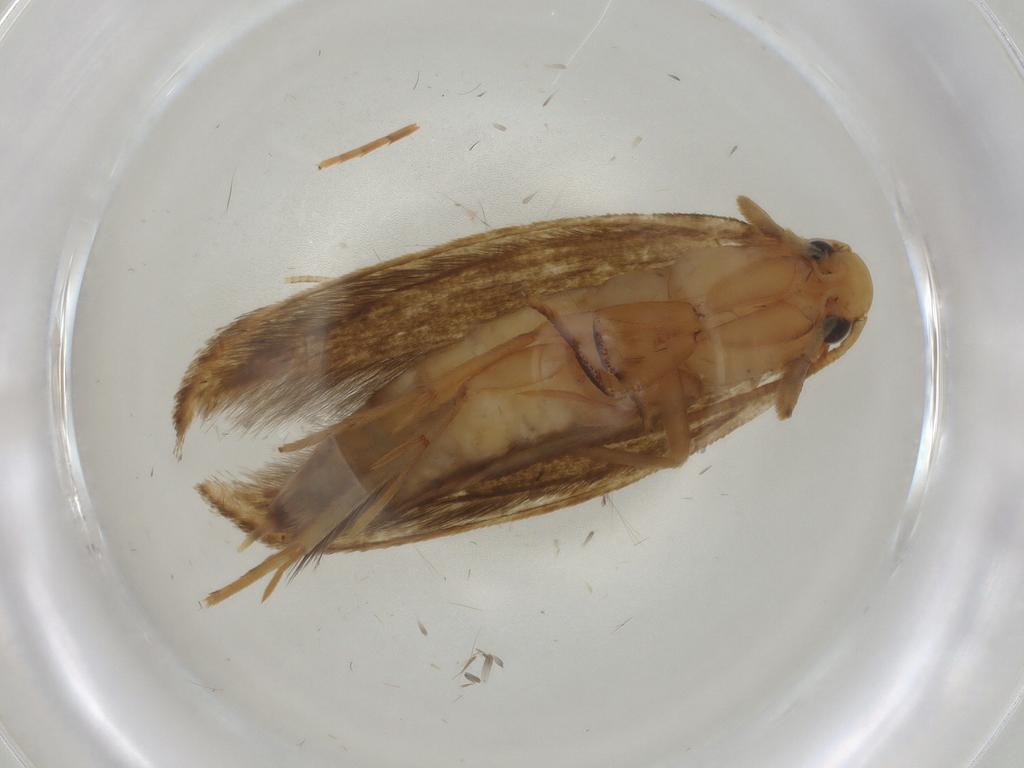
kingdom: Animalia
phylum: Arthropoda
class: Insecta
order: Lepidoptera
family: Tineidae
